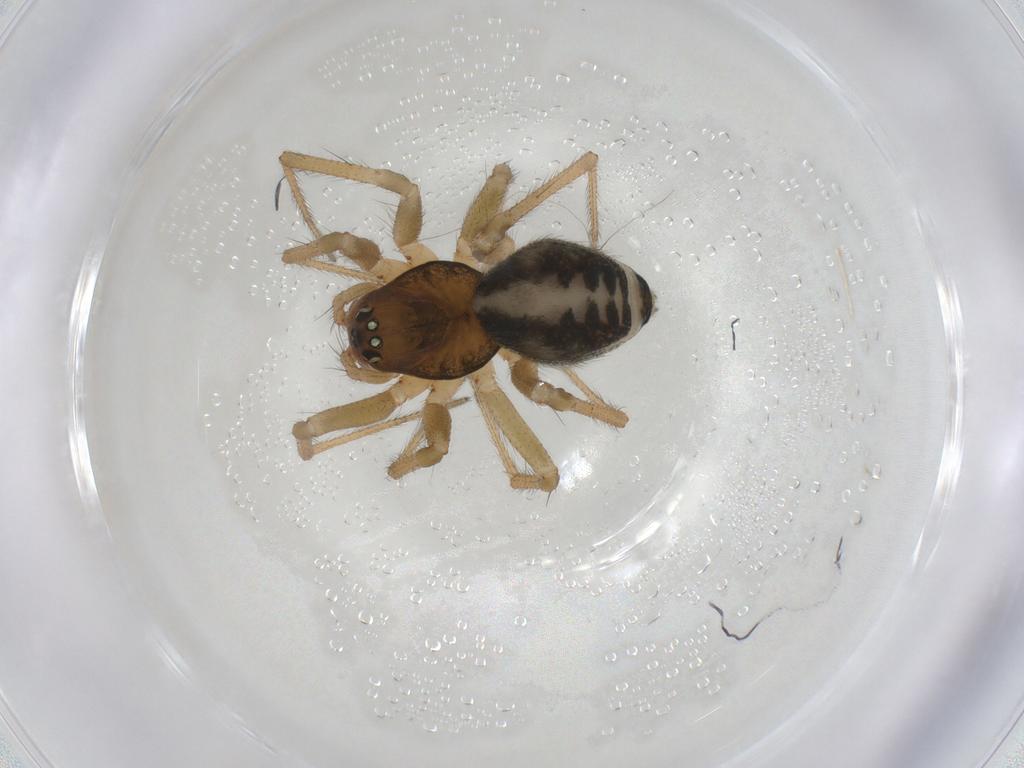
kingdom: Animalia
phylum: Arthropoda
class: Arachnida
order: Araneae
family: Linyphiidae
